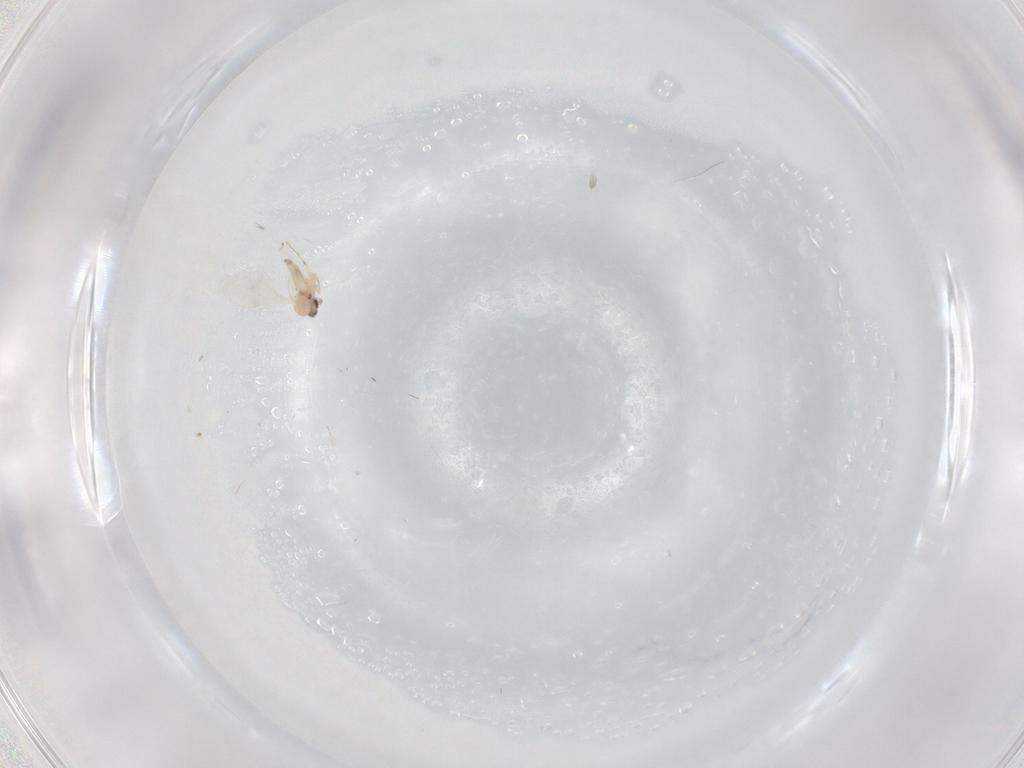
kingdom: Animalia
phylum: Arthropoda
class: Insecta
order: Diptera
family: Cecidomyiidae
